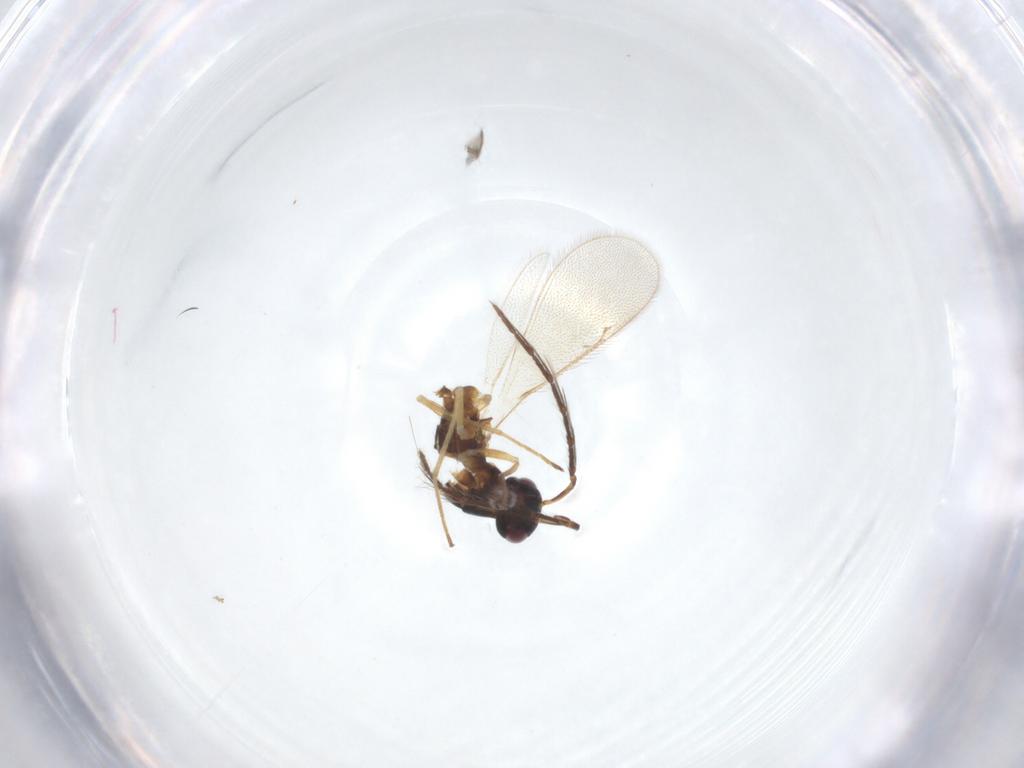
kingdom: Animalia
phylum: Arthropoda
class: Insecta
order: Hymenoptera
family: Eulophidae
